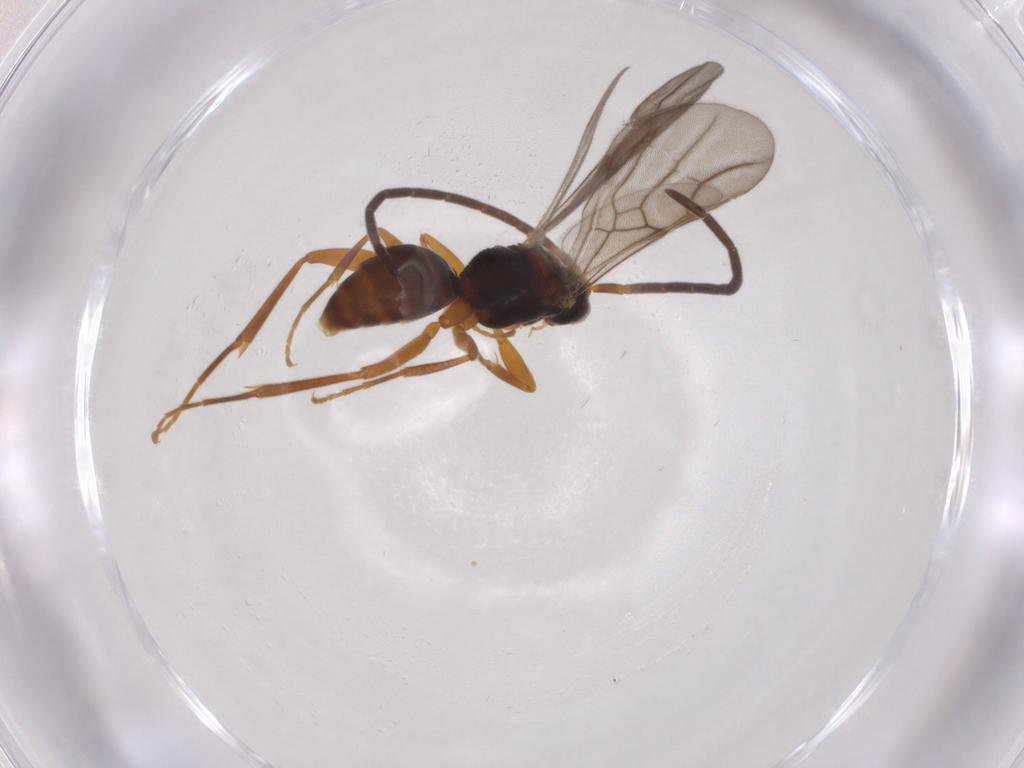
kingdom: Animalia
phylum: Arthropoda
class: Insecta
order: Hymenoptera
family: Embolemidae
